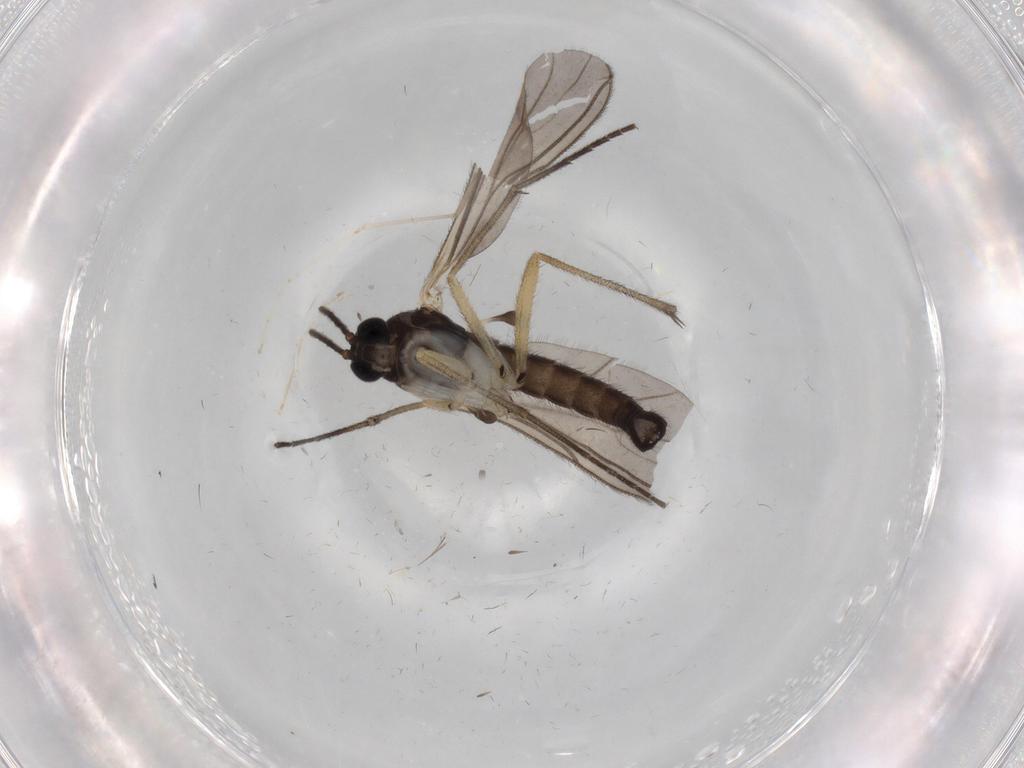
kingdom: Animalia
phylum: Arthropoda
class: Insecta
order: Diptera
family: Sciaridae
